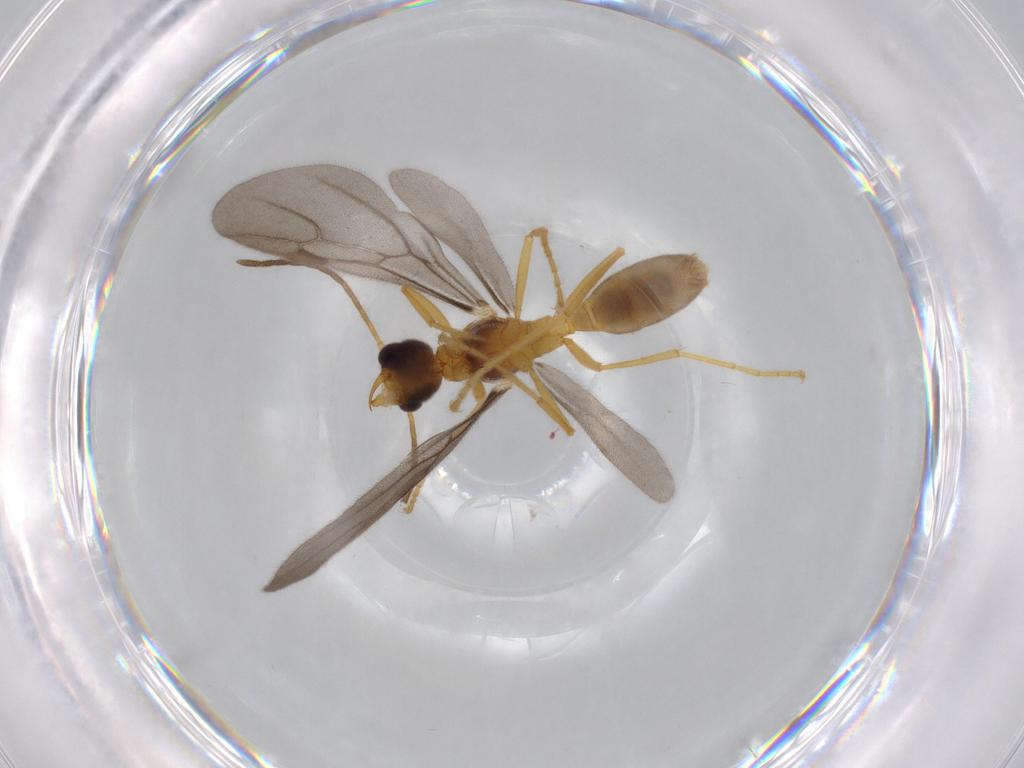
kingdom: Animalia
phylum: Arthropoda
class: Insecta
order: Hymenoptera
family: Formicidae
